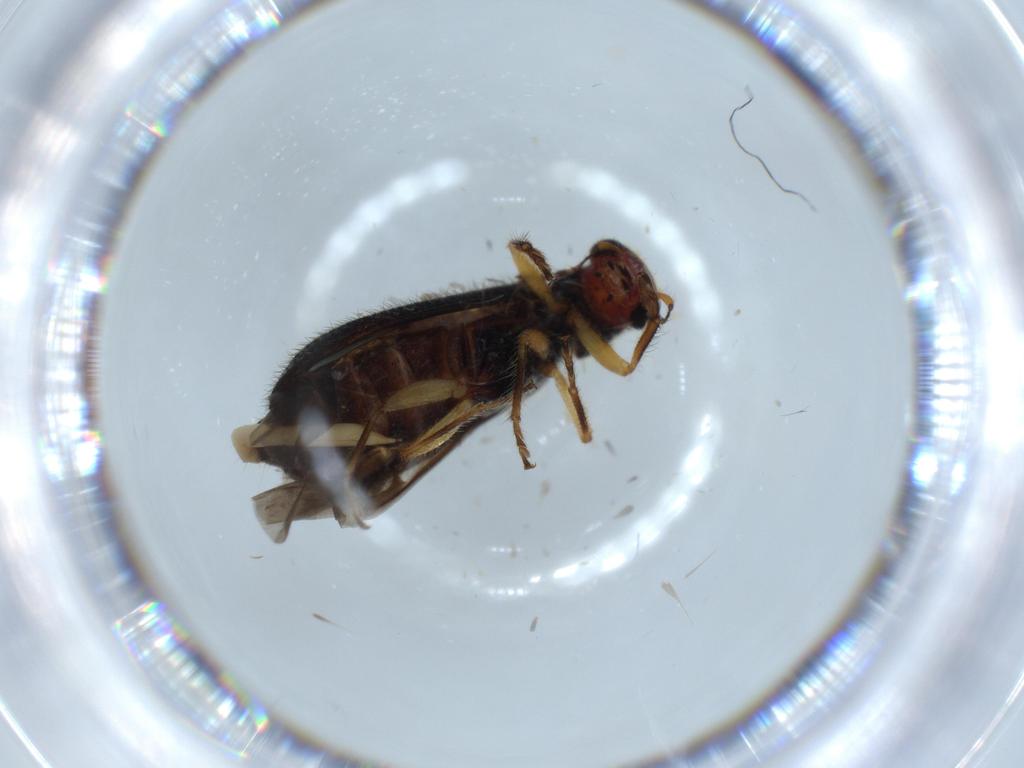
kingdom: Animalia
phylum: Arthropoda
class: Insecta
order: Coleoptera
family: Cleridae
